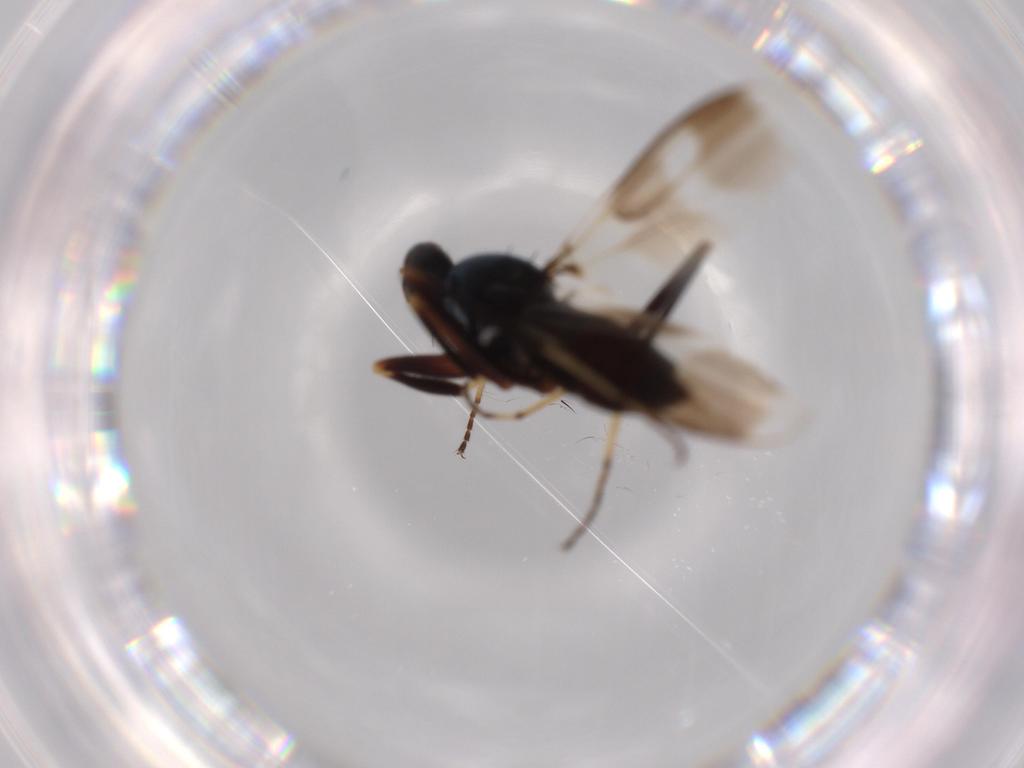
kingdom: Animalia
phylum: Arthropoda
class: Insecta
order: Diptera
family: Hybotidae
